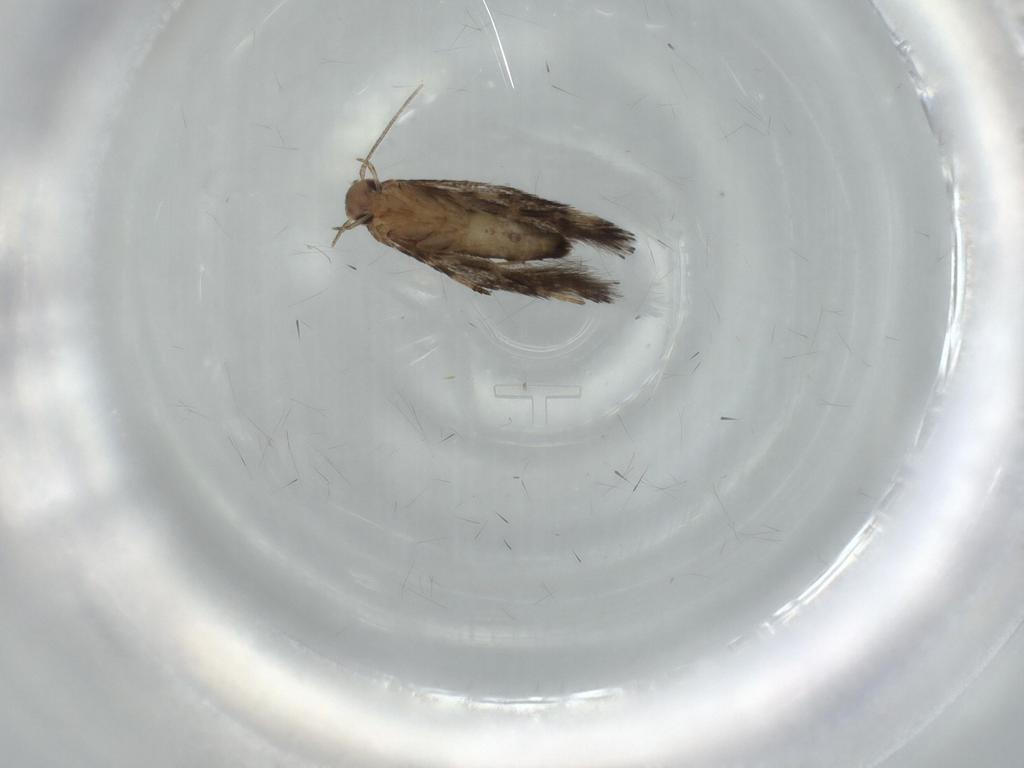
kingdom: Animalia
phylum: Arthropoda
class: Insecta
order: Lepidoptera
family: Cosmopterigidae
